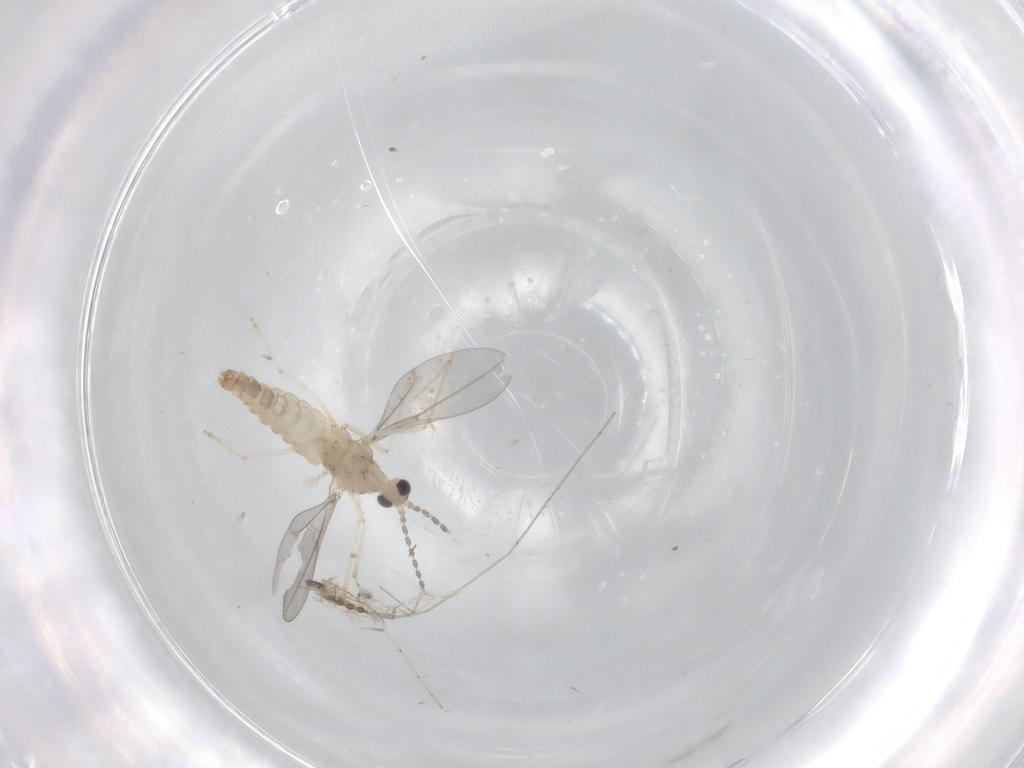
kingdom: Animalia
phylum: Arthropoda
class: Insecta
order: Diptera
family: Cecidomyiidae
